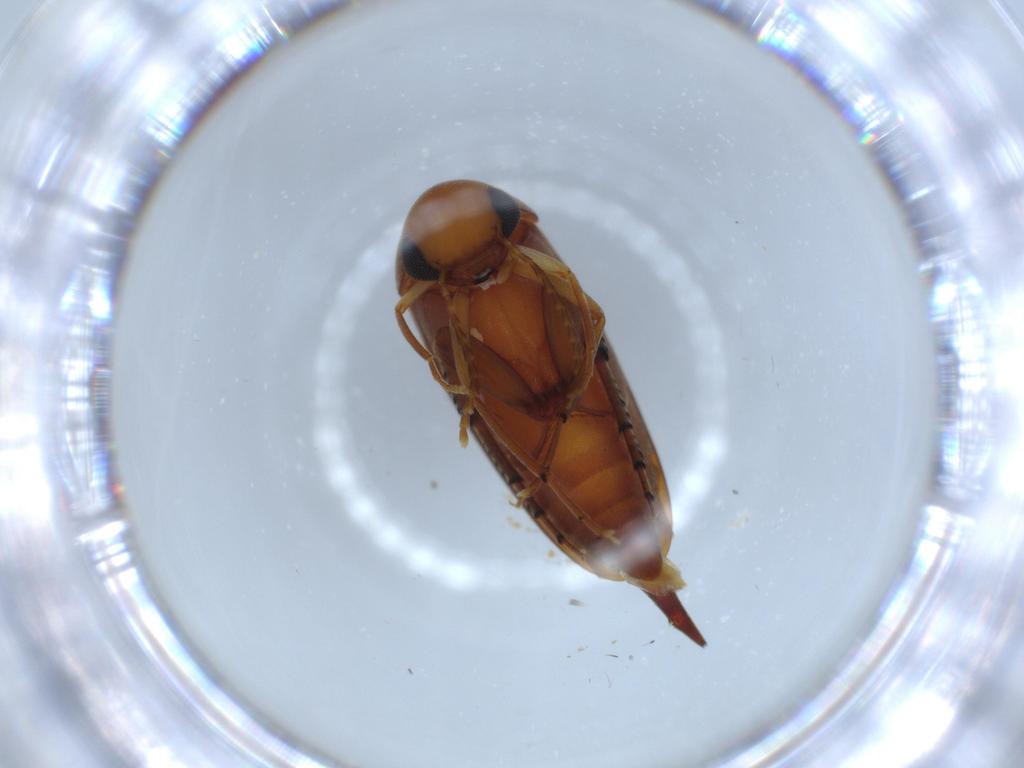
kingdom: Animalia
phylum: Arthropoda
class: Insecta
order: Coleoptera
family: Mordellidae
